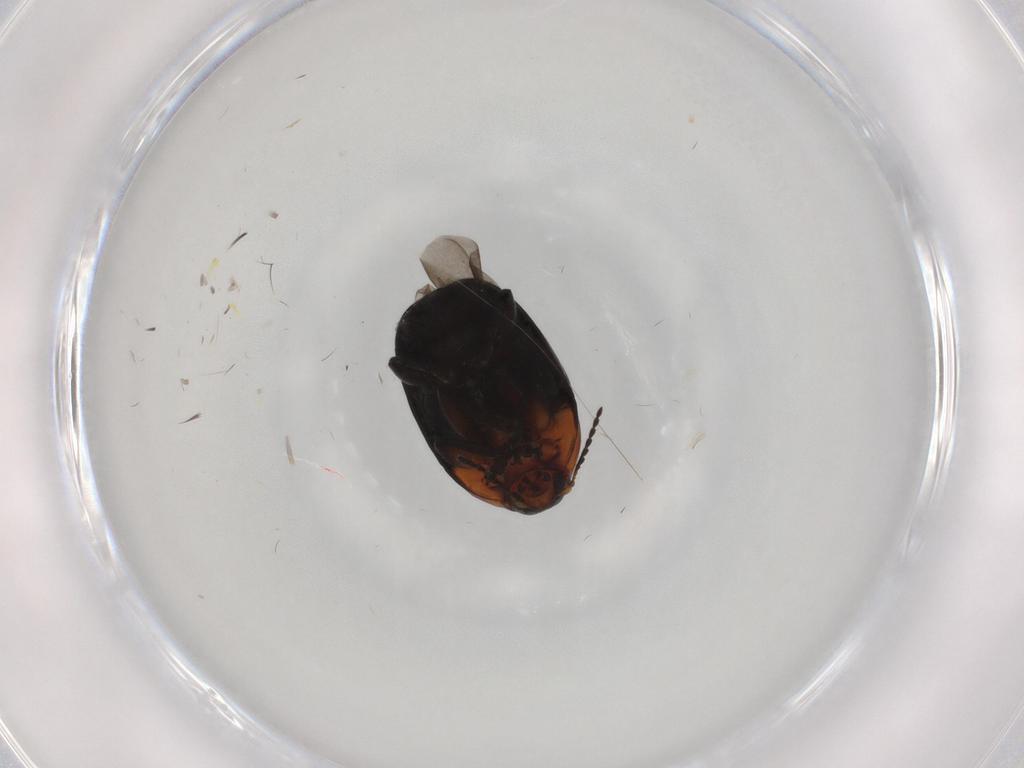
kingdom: Animalia
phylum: Arthropoda
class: Insecta
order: Coleoptera
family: Chrysomelidae
